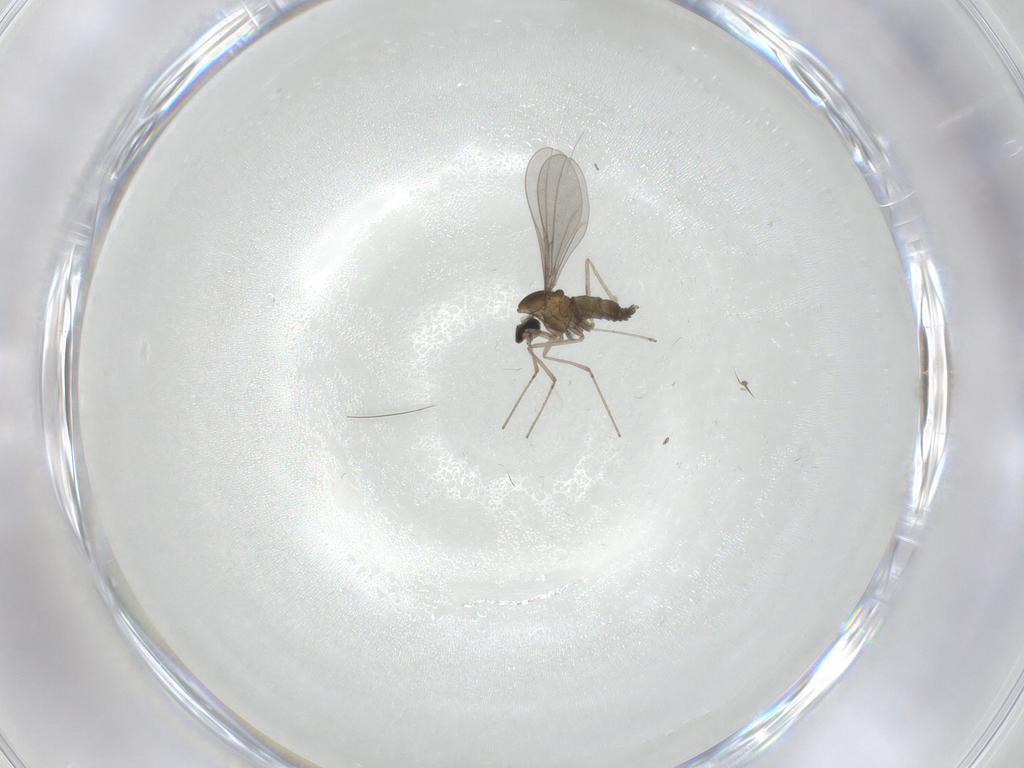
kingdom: Animalia
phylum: Arthropoda
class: Insecta
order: Diptera
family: Cecidomyiidae
